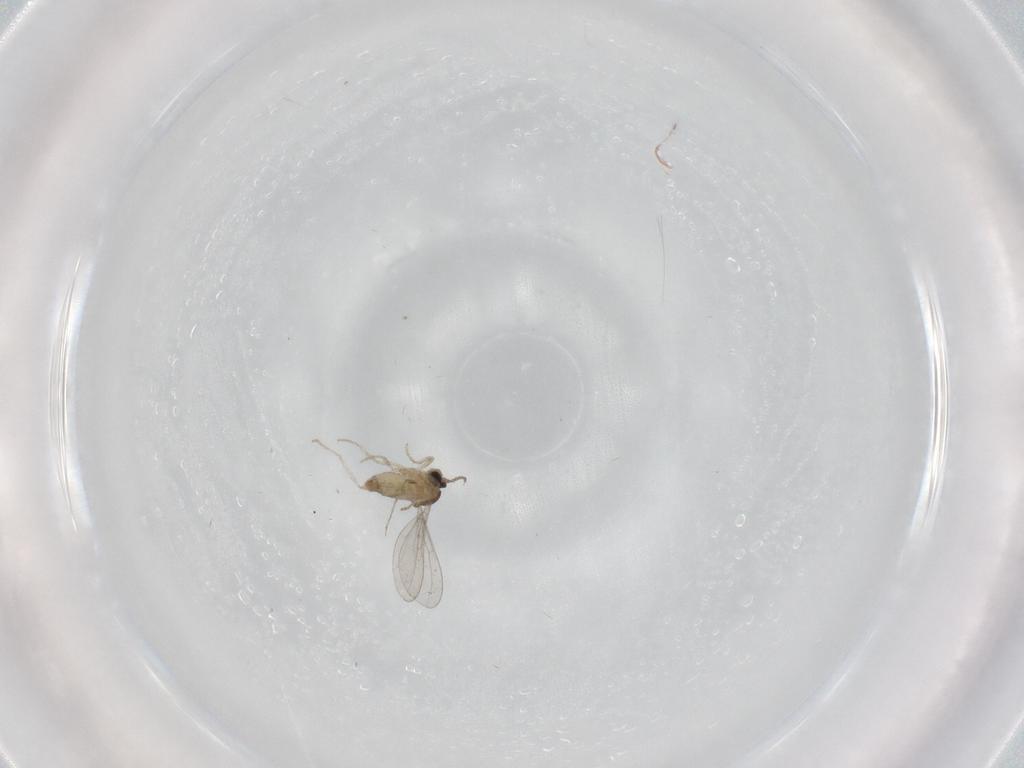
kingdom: Animalia
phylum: Arthropoda
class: Insecta
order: Diptera
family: Cecidomyiidae
